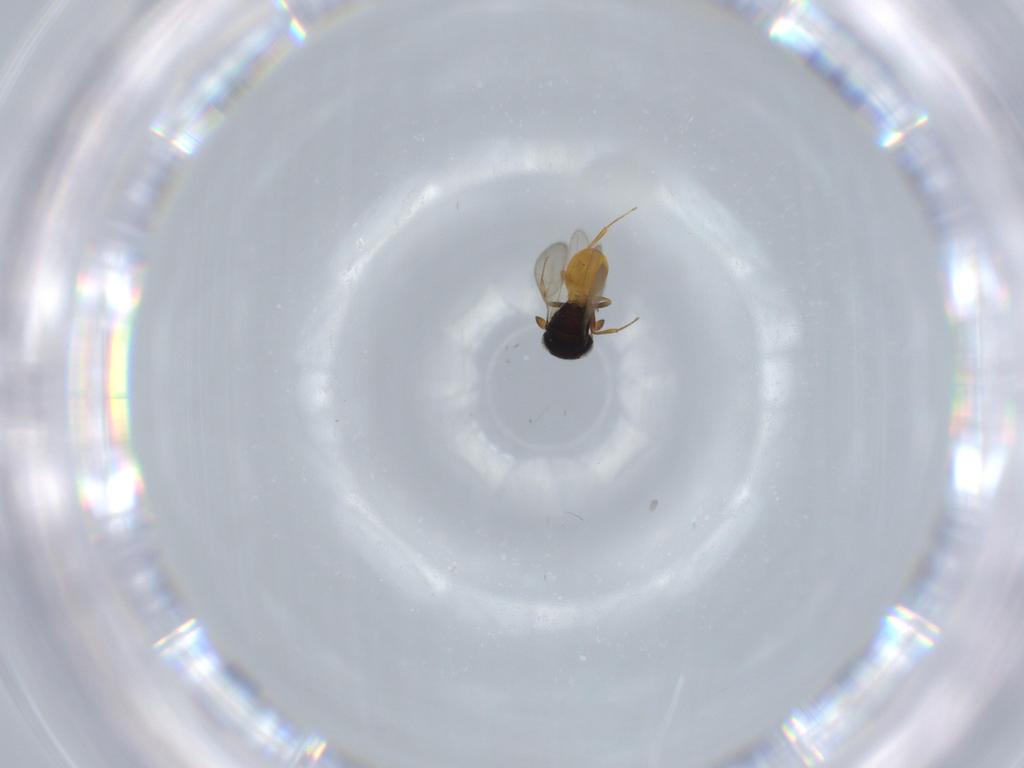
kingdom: Animalia
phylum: Arthropoda
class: Insecta
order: Hymenoptera
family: Scelionidae
